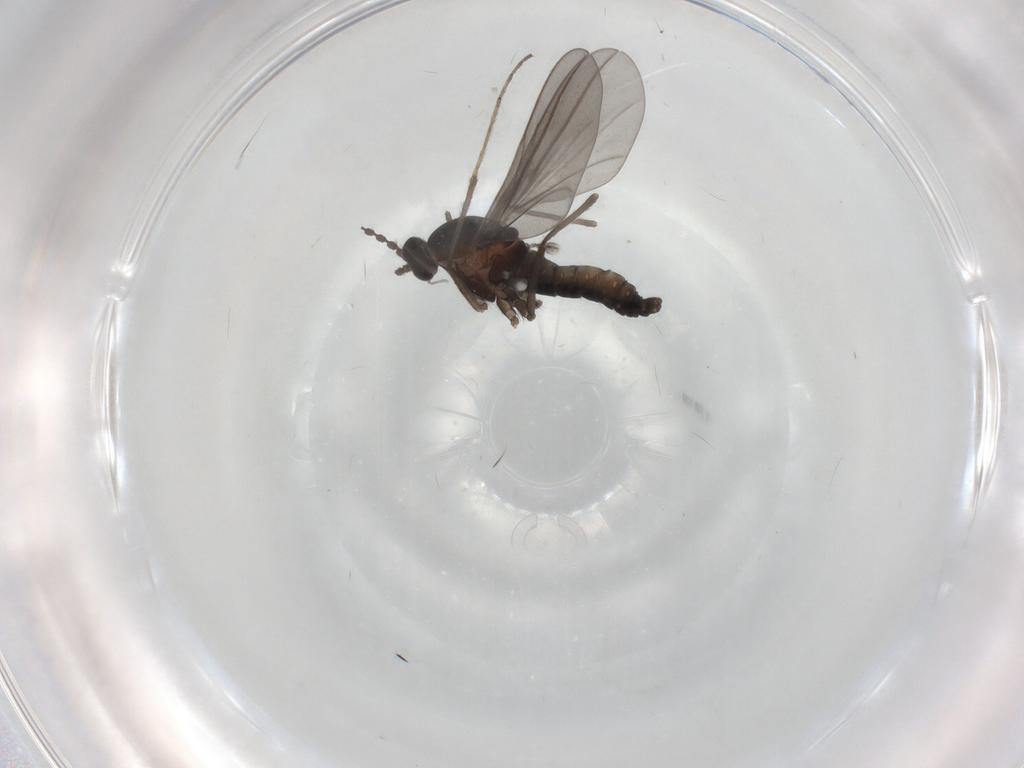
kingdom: Animalia
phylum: Arthropoda
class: Insecta
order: Diptera
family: Cecidomyiidae
